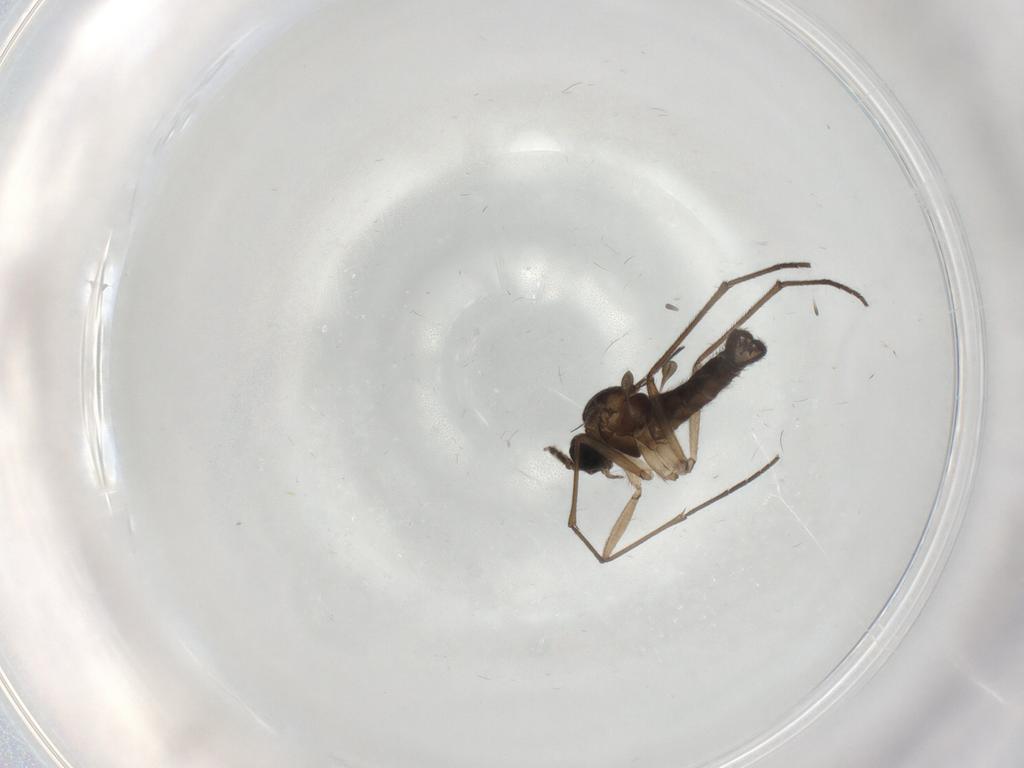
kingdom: Animalia
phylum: Arthropoda
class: Insecta
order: Diptera
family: Sciaridae
